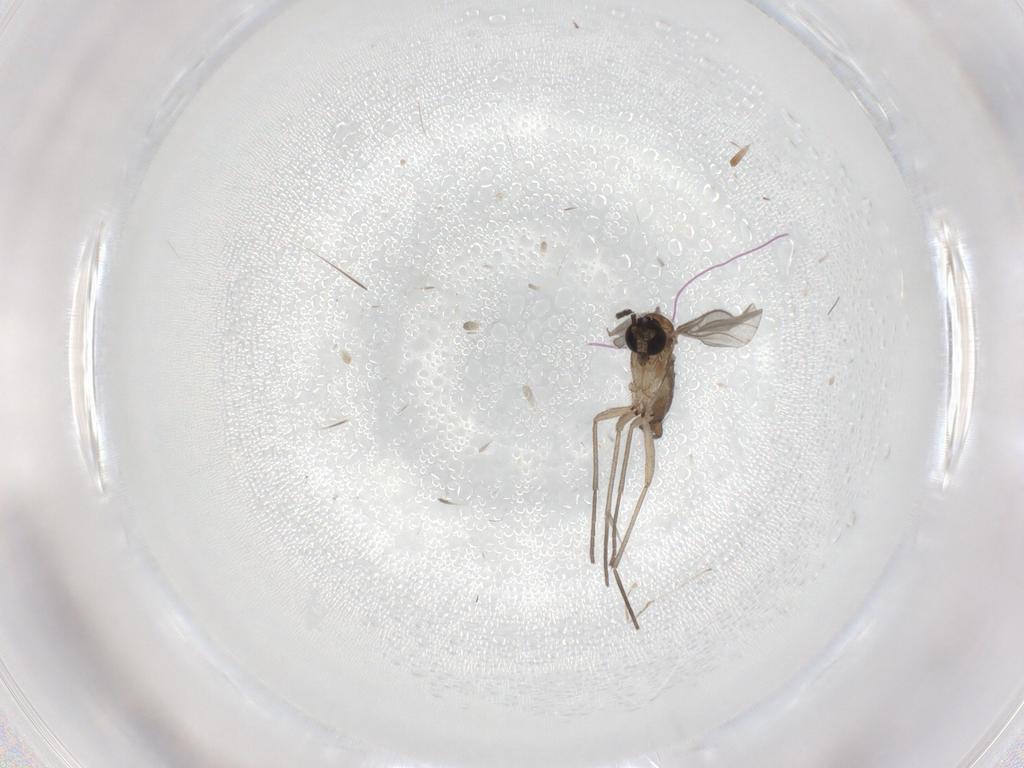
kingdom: Animalia
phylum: Arthropoda
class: Insecta
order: Diptera
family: Sciaridae
